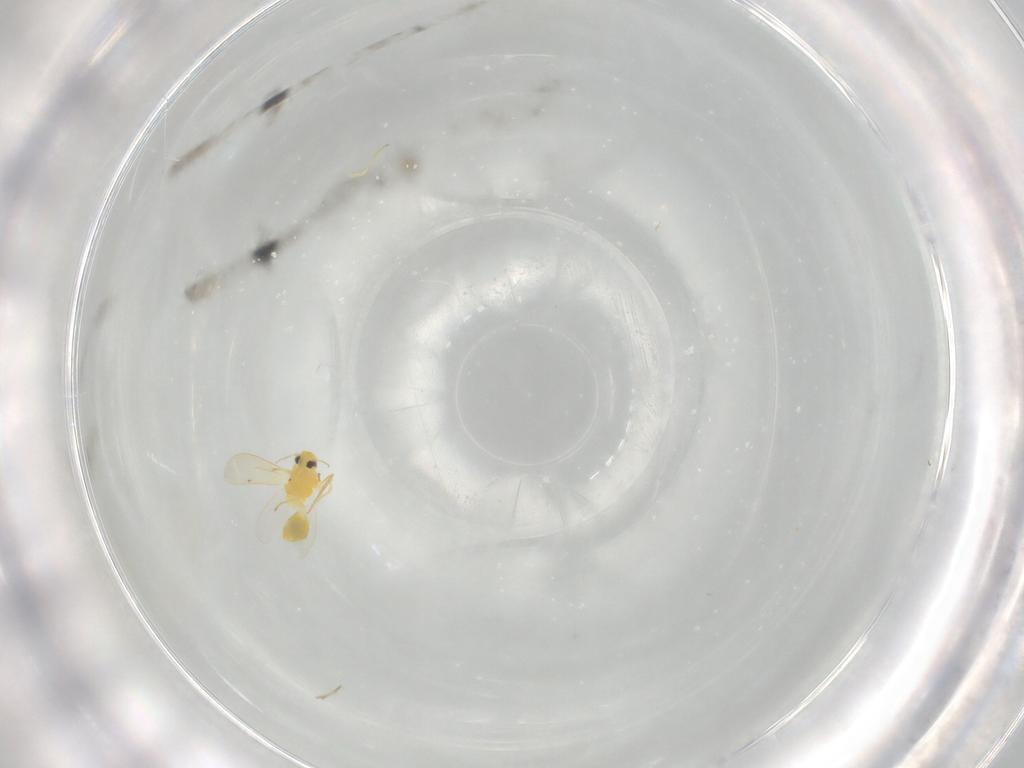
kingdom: Animalia
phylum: Arthropoda
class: Insecta
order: Hemiptera
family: Aleyrodidae
